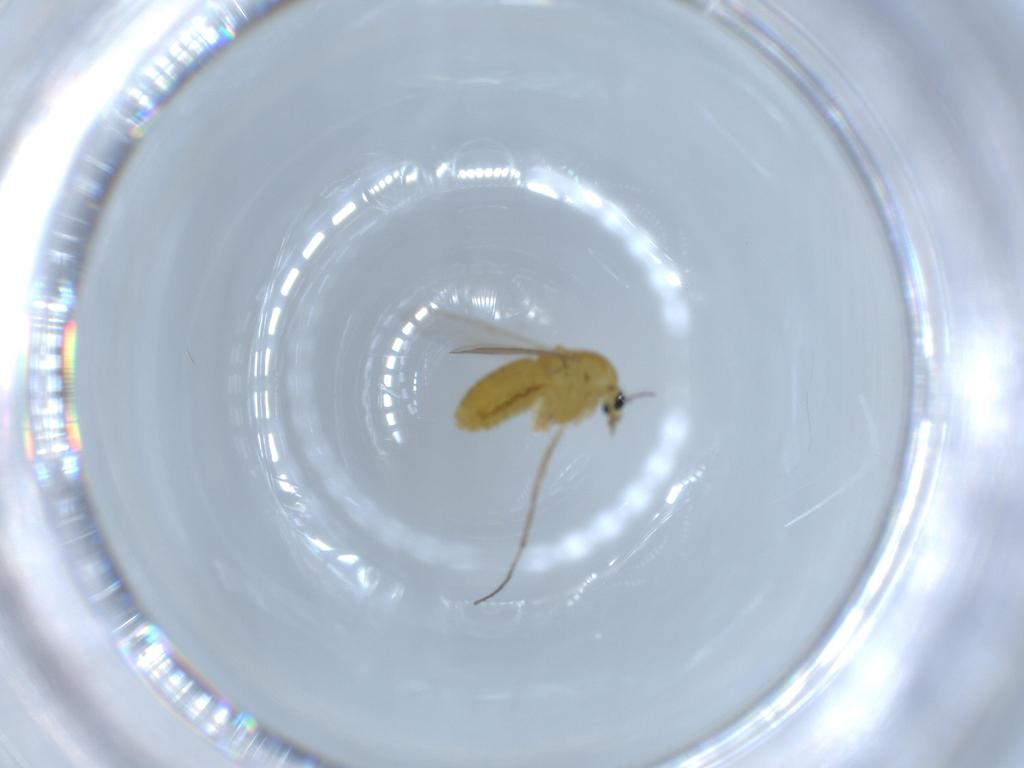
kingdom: Animalia
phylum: Arthropoda
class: Insecta
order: Diptera
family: Chironomidae
